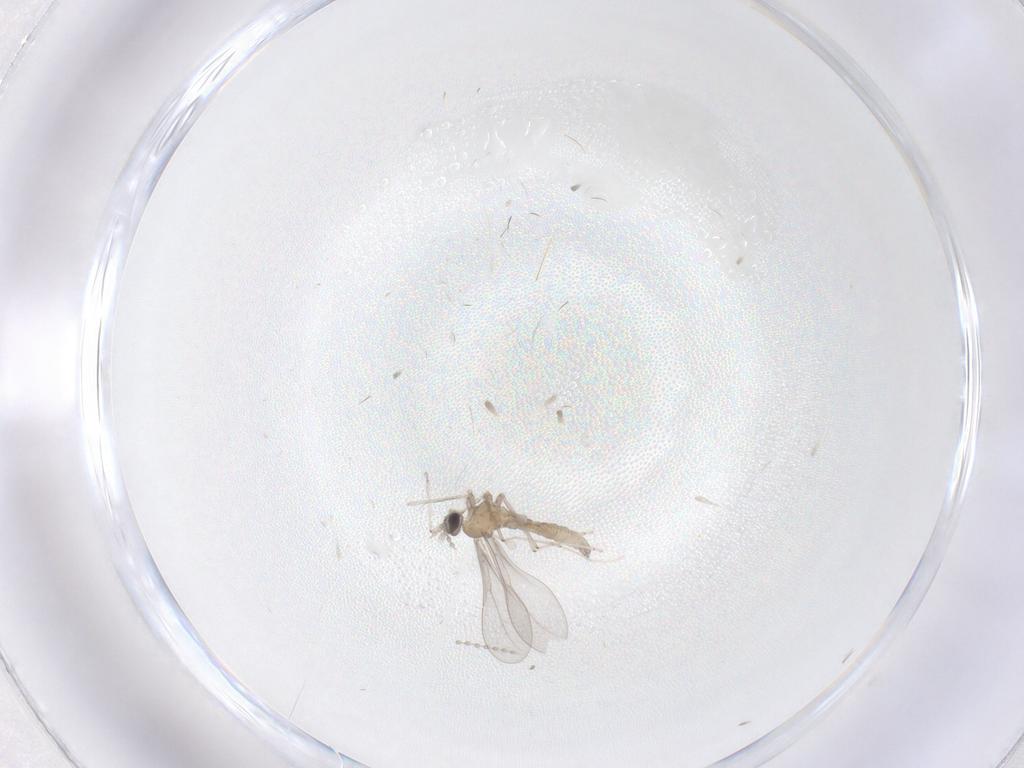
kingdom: Animalia
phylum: Arthropoda
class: Insecta
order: Diptera
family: Cecidomyiidae
